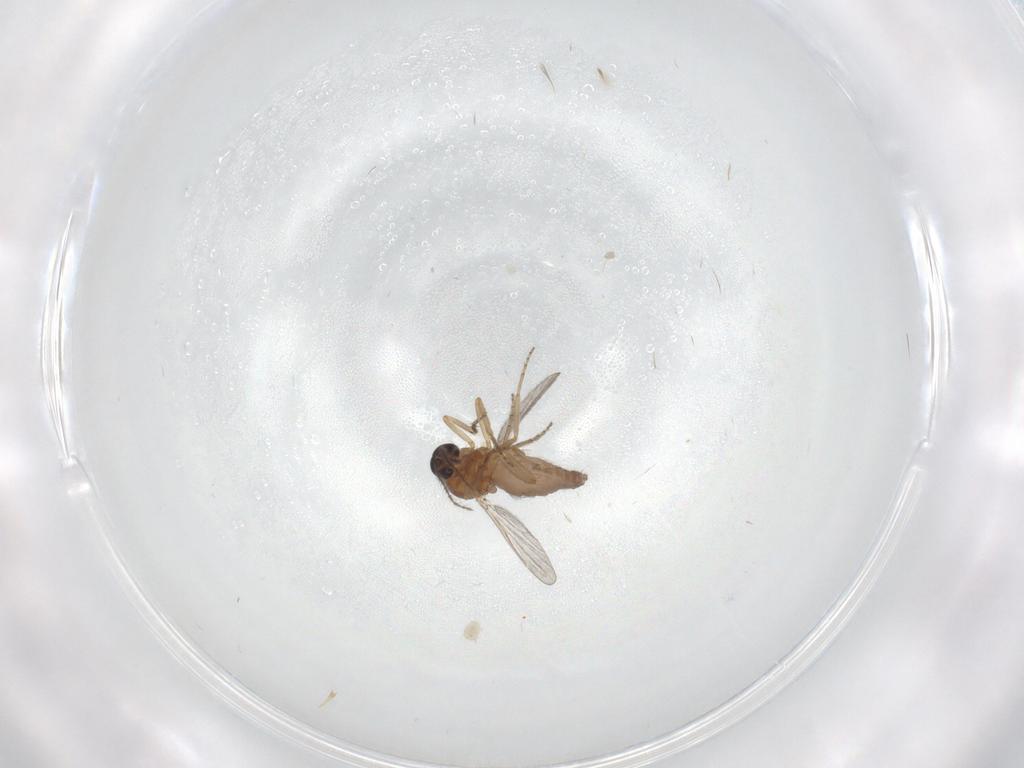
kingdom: Animalia
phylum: Arthropoda
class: Insecta
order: Diptera
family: Ceratopogonidae
